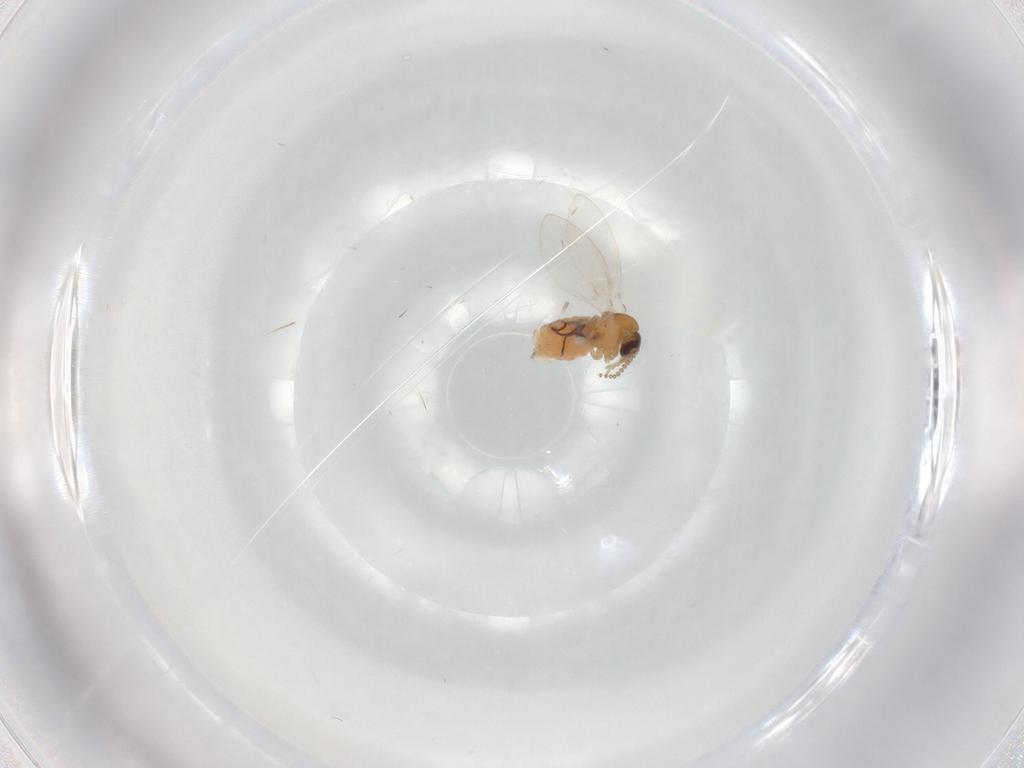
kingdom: Animalia
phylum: Arthropoda
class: Insecta
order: Diptera
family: Psychodidae
